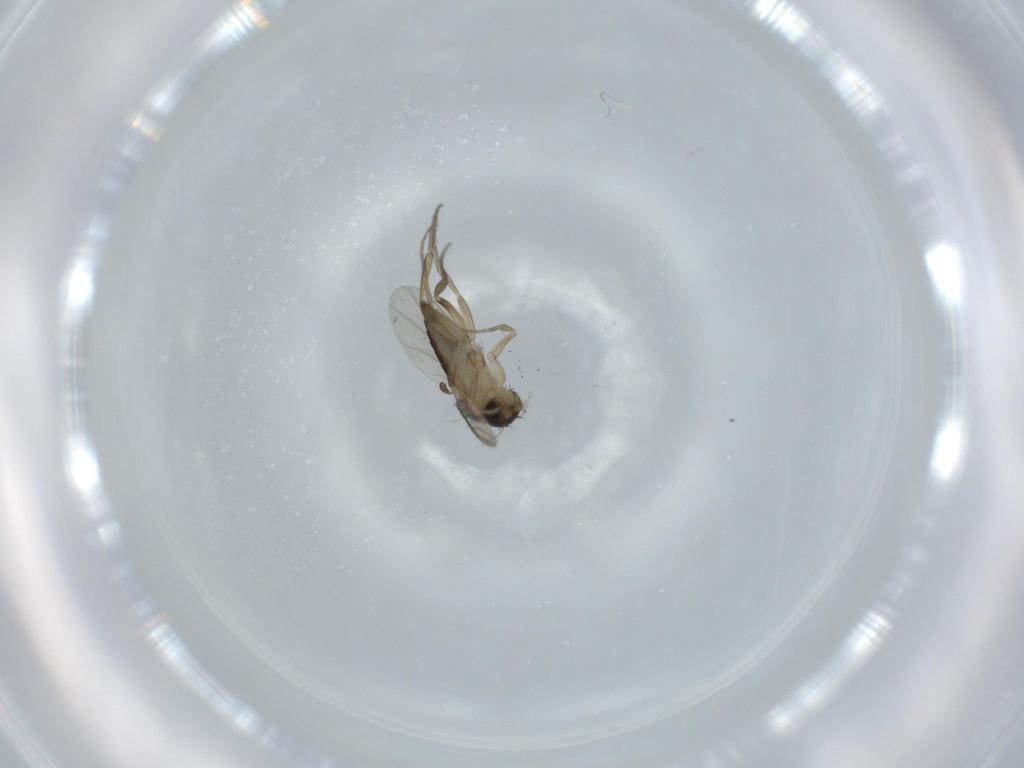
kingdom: Animalia
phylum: Arthropoda
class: Insecta
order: Diptera
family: Phoridae
